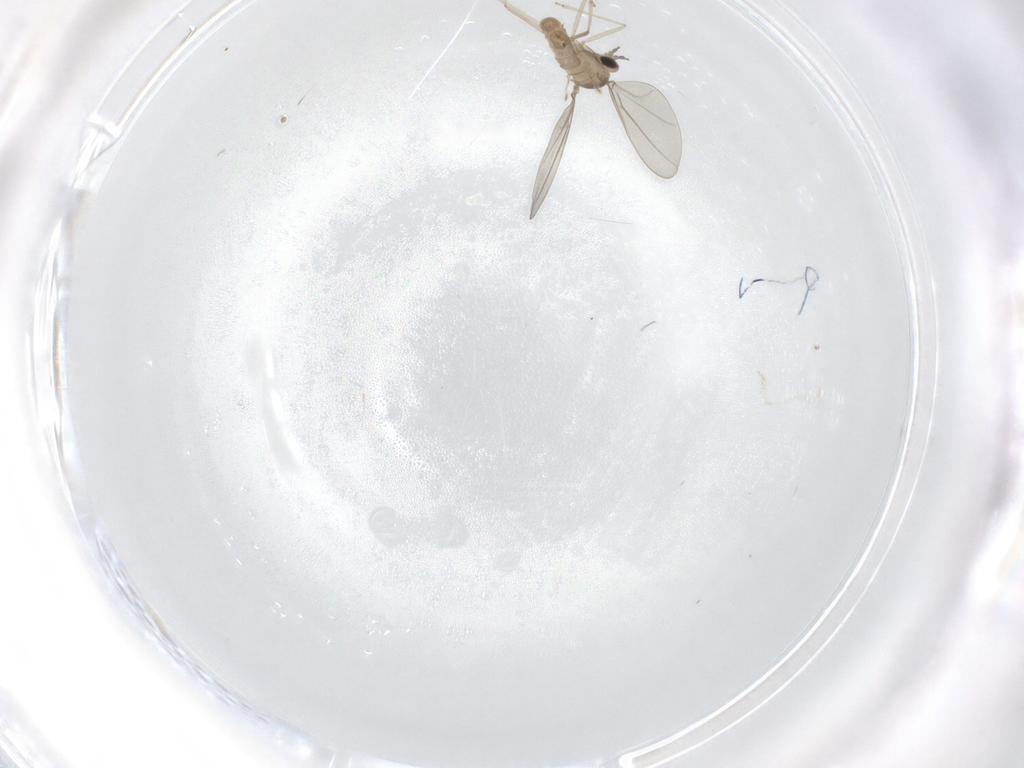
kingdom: Animalia
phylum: Arthropoda
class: Insecta
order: Diptera
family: Cecidomyiidae
